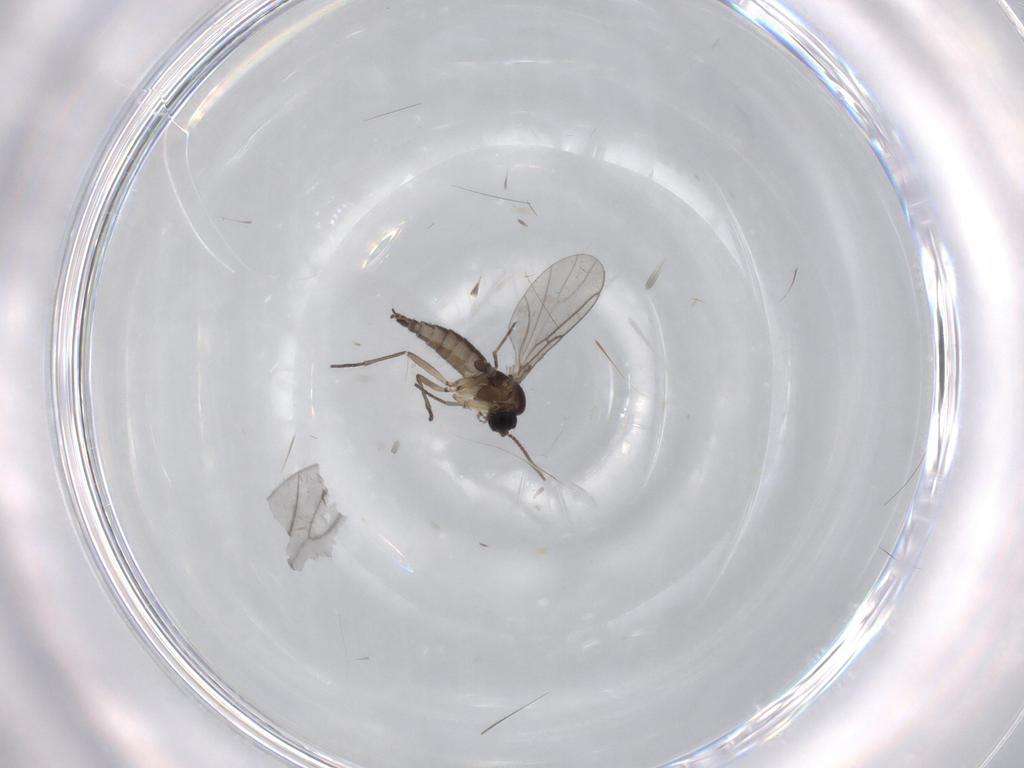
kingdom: Animalia
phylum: Arthropoda
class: Insecta
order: Diptera
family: Sciaridae
